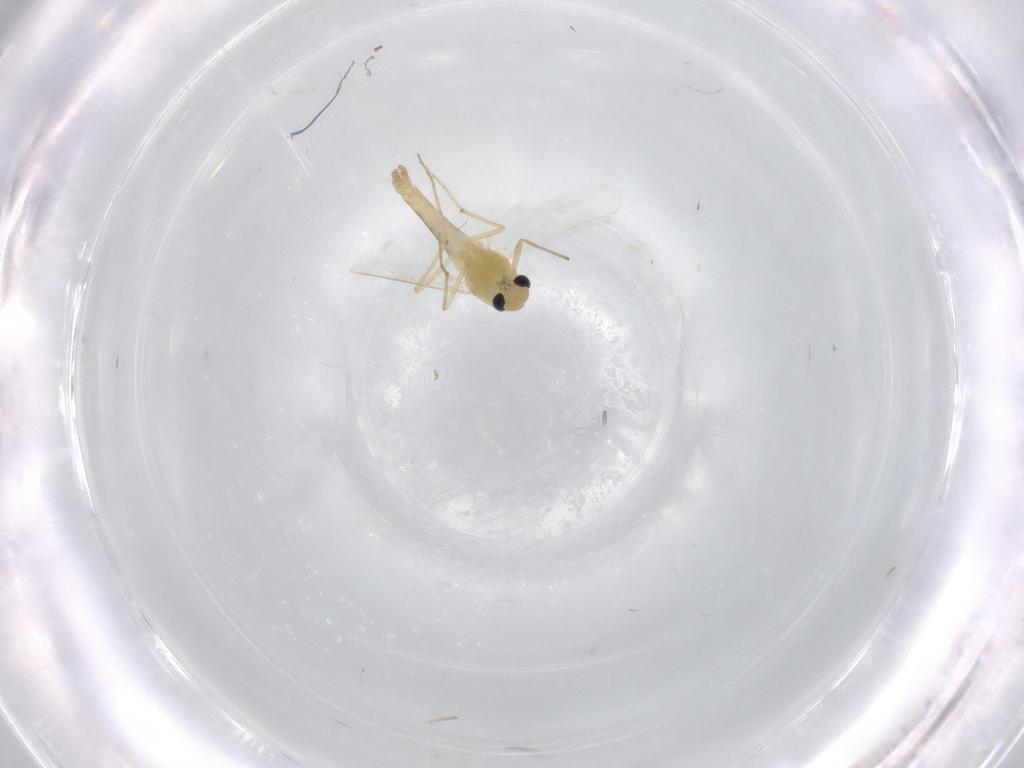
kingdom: Animalia
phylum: Arthropoda
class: Insecta
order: Diptera
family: Chironomidae
